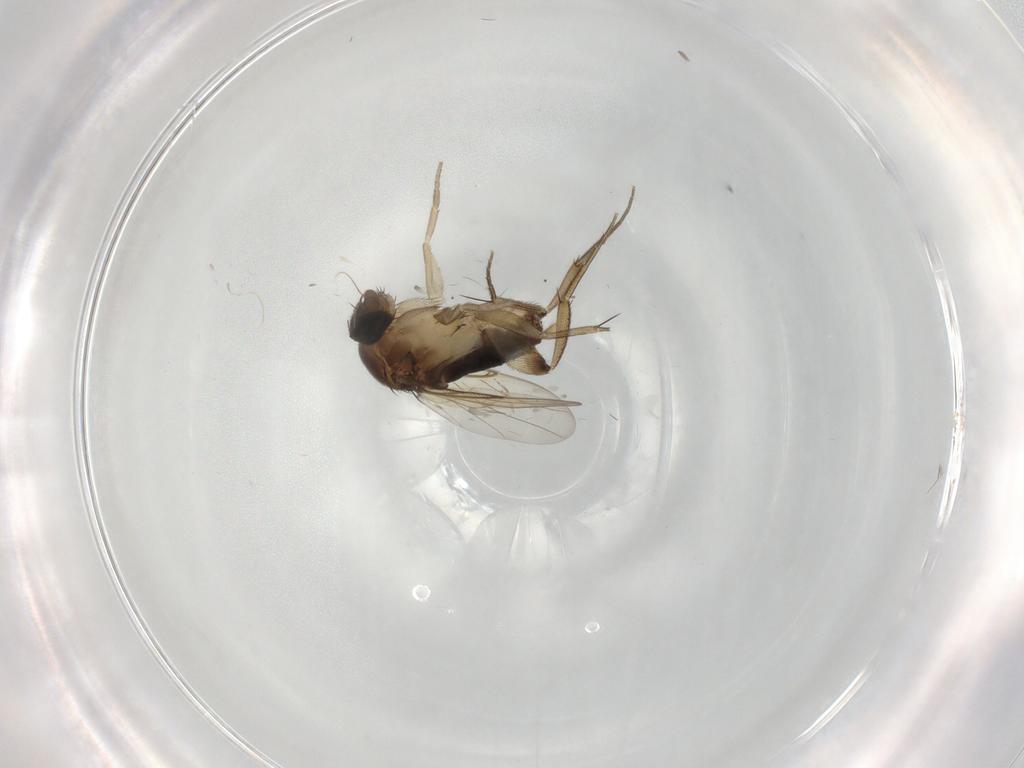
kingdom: Animalia
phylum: Arthropoda
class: Insecta
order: Diptera
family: Phoridae
